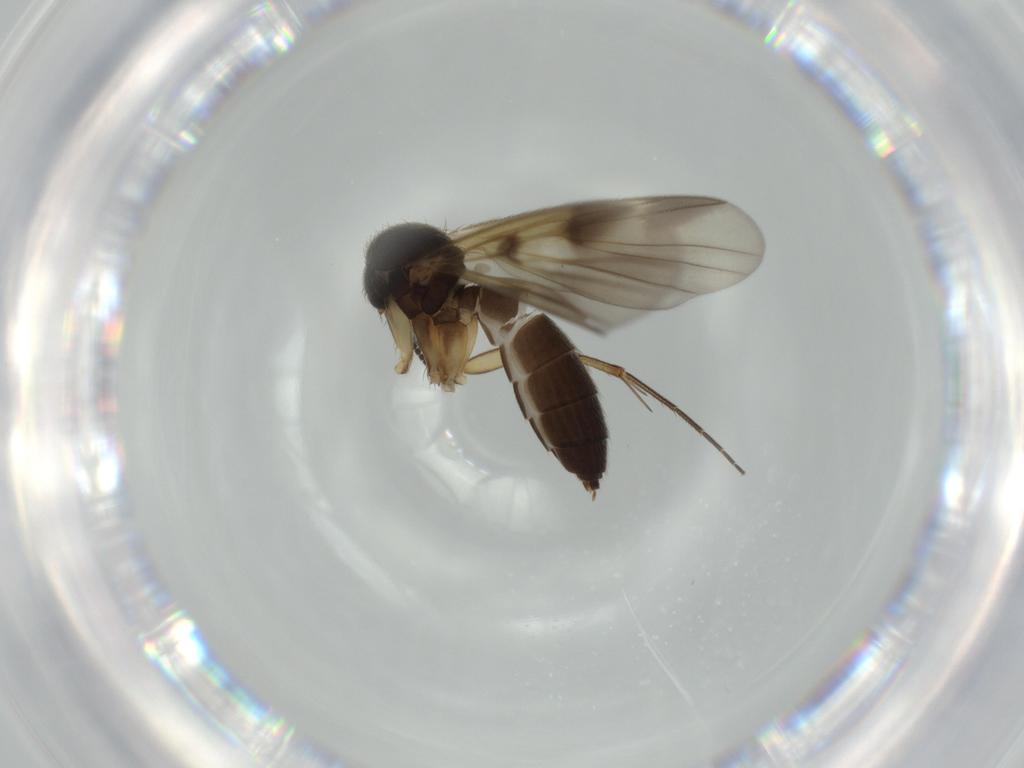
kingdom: Animalia
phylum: Arthropoda
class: Insecta
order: Diptera
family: Phoridae
